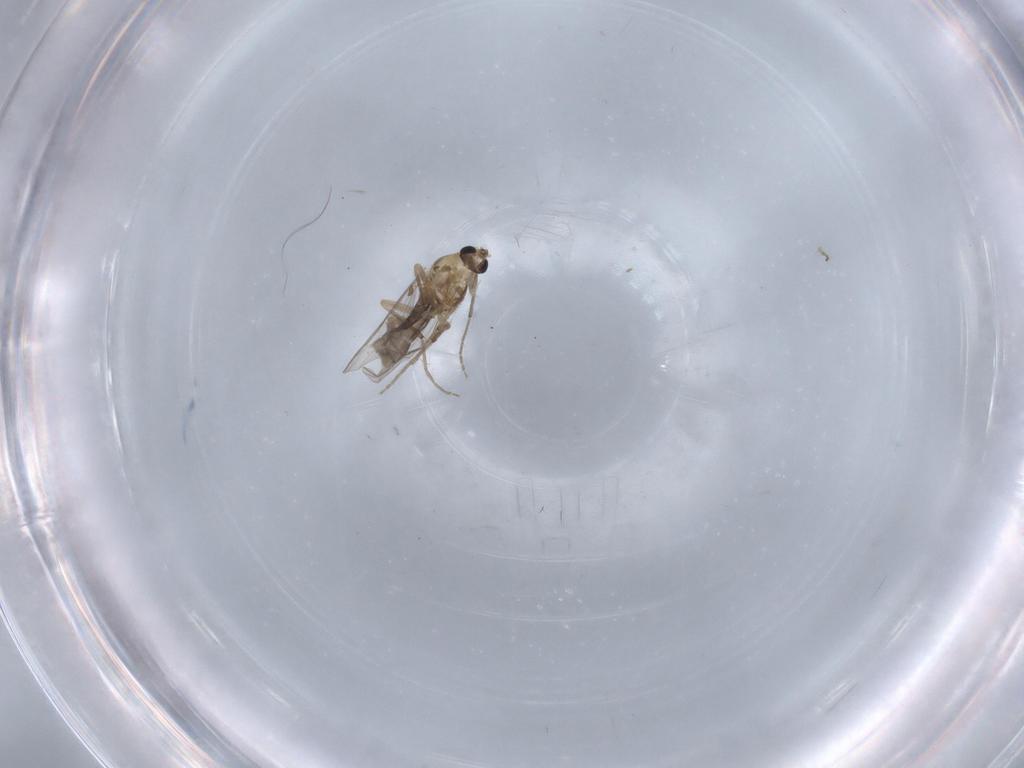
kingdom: Animalia
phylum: Arthropoda
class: Insecta
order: Diptera
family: Chironomidae
